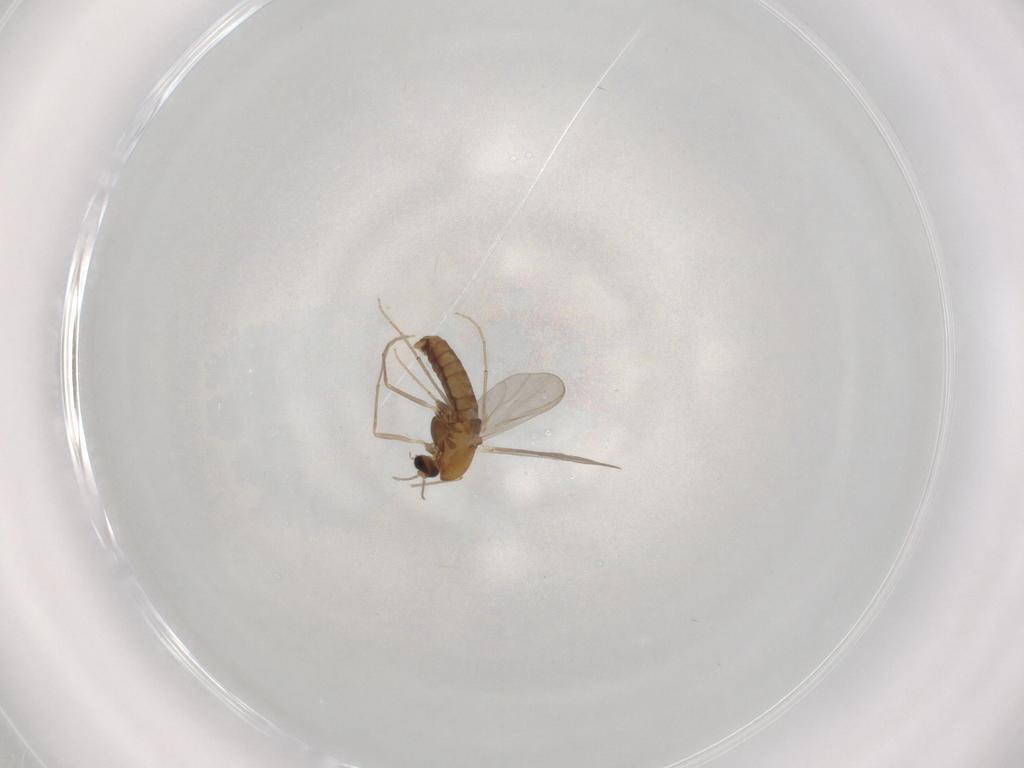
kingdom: Animalia
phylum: Arthropoda
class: Insecta
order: Diptera
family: Chironomidae
